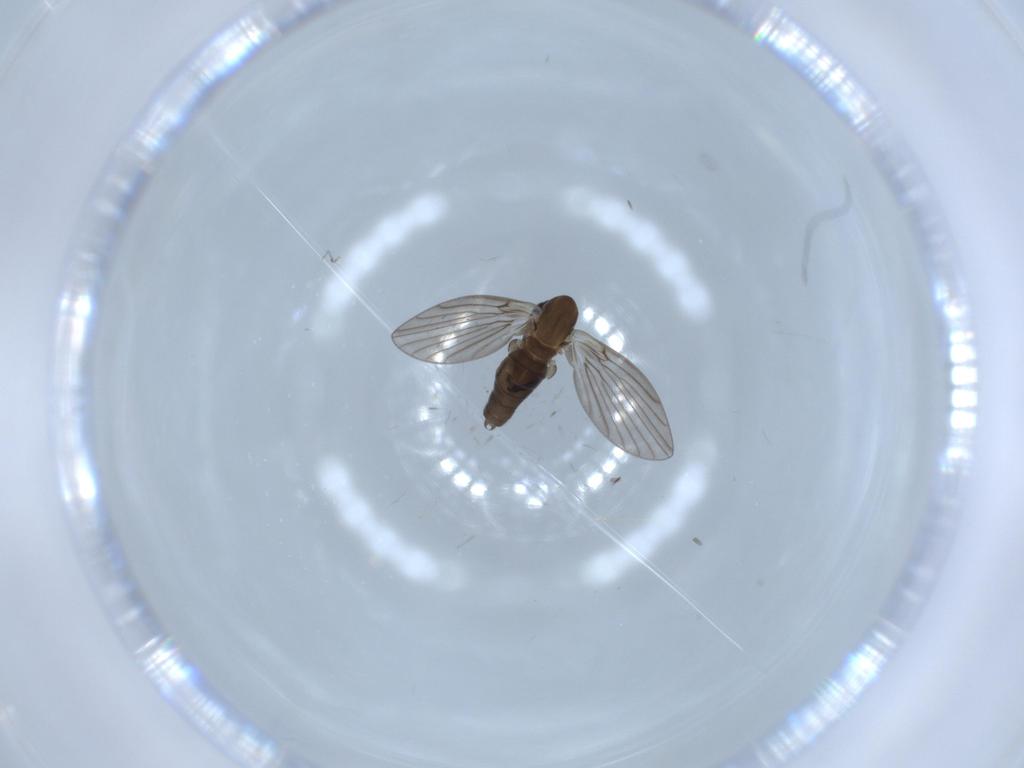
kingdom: Animalia
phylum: Arthropoda
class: Insecta
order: Diptera
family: Psychodidae
